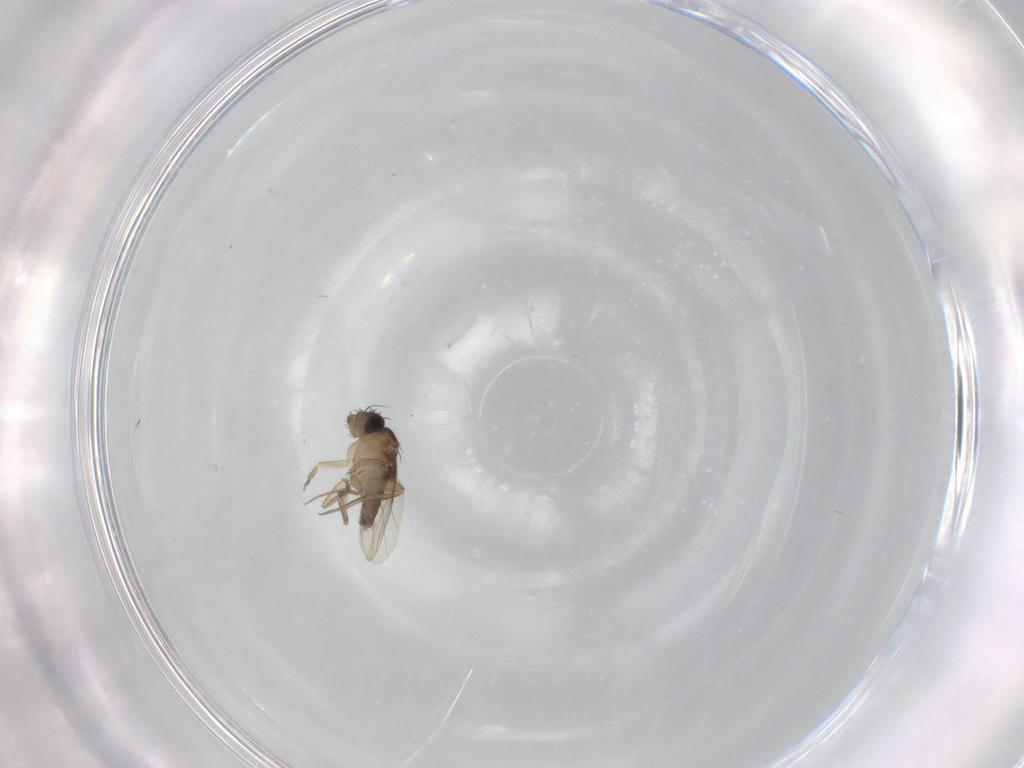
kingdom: Animalia
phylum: Arthropoda
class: Insecta
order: Diptera
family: Phoridae
